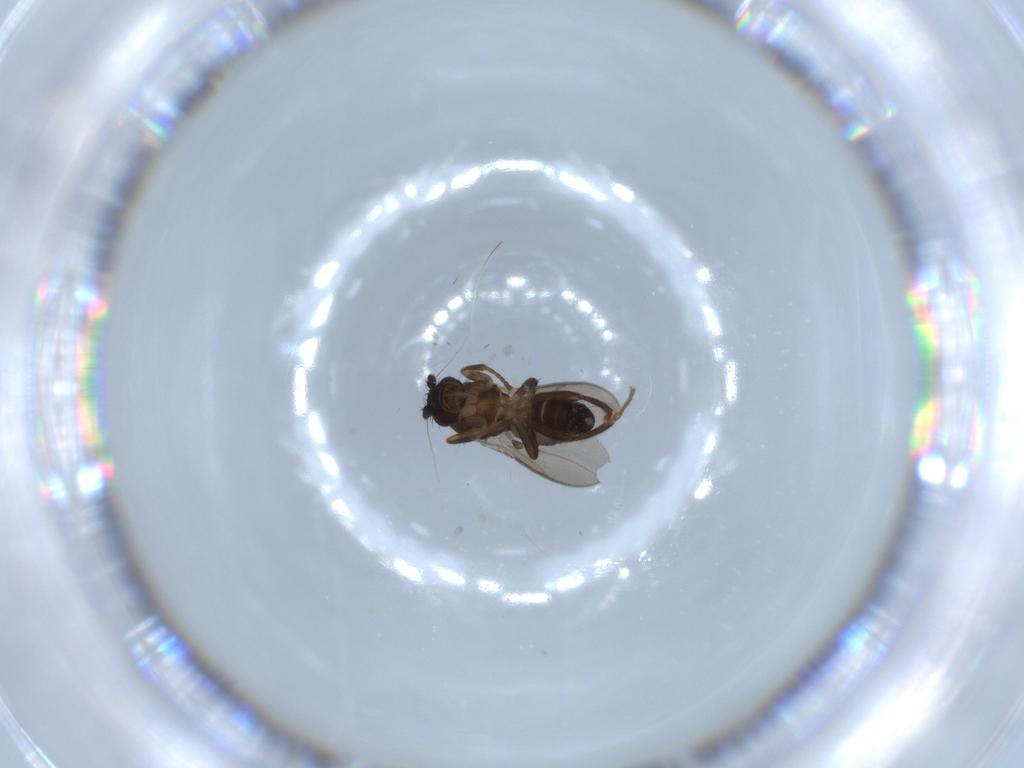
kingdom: Animalia
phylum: Arthropoda
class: Insecta
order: Diptera
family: Sphaeroceridae
